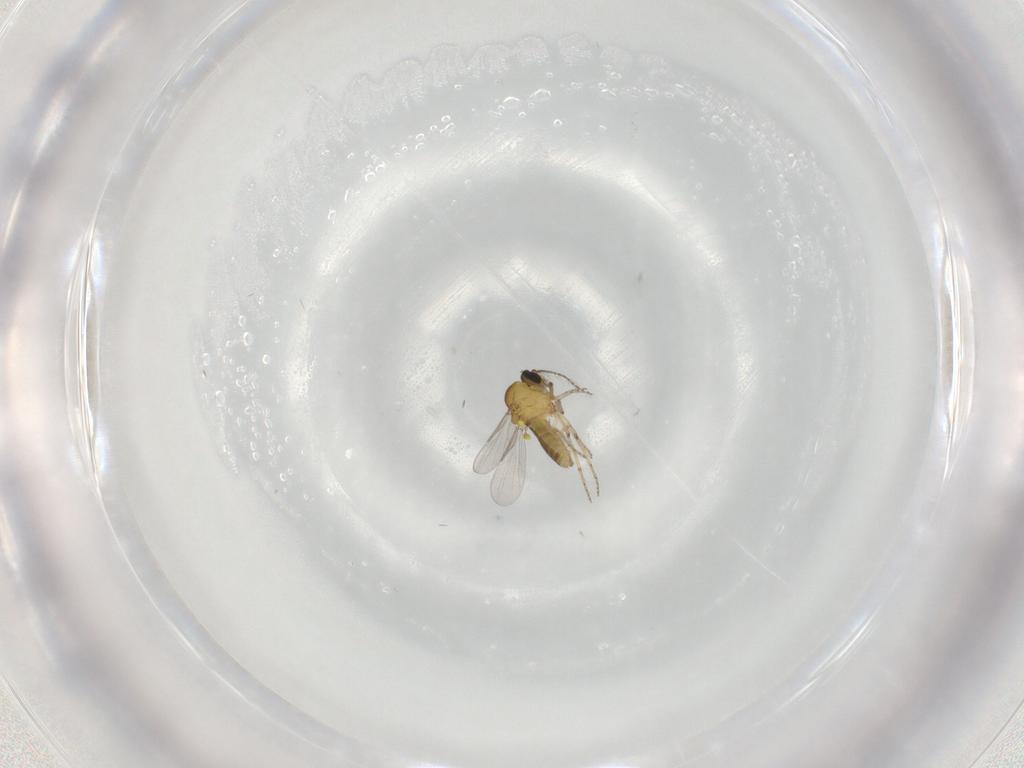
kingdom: Animalia
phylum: Arthropoda
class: Insecta
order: Diptera
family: Ceratopogonidae
